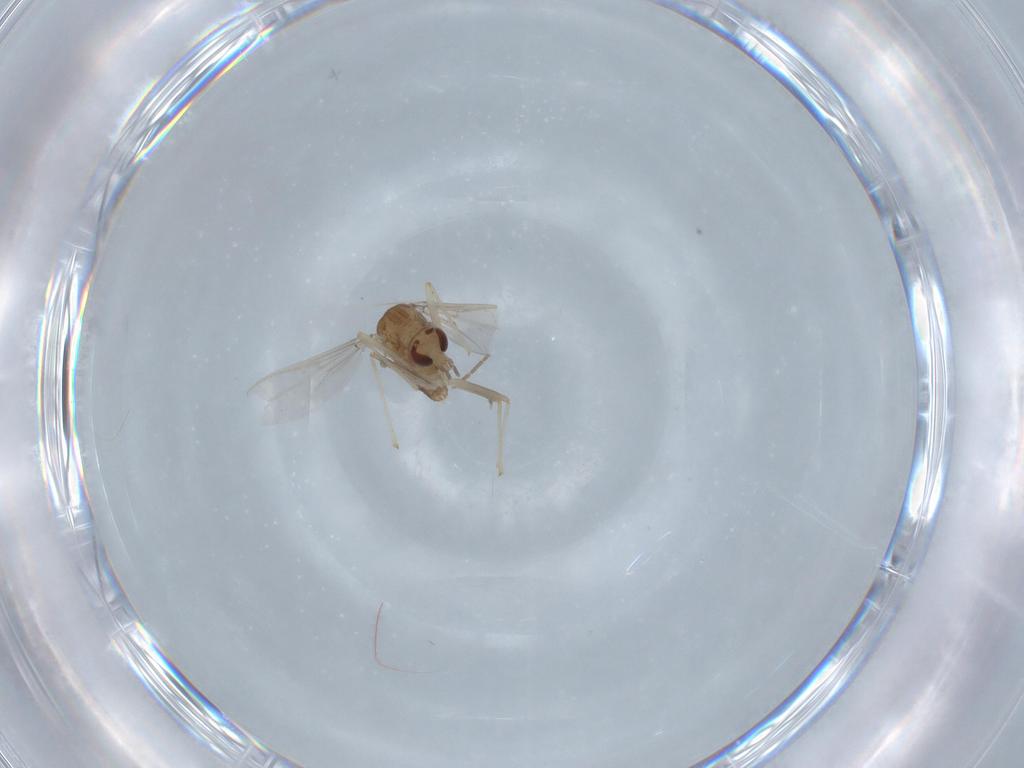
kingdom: Animalia
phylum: Arthropoda
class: Insecta
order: Diptera
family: Chironomidae
